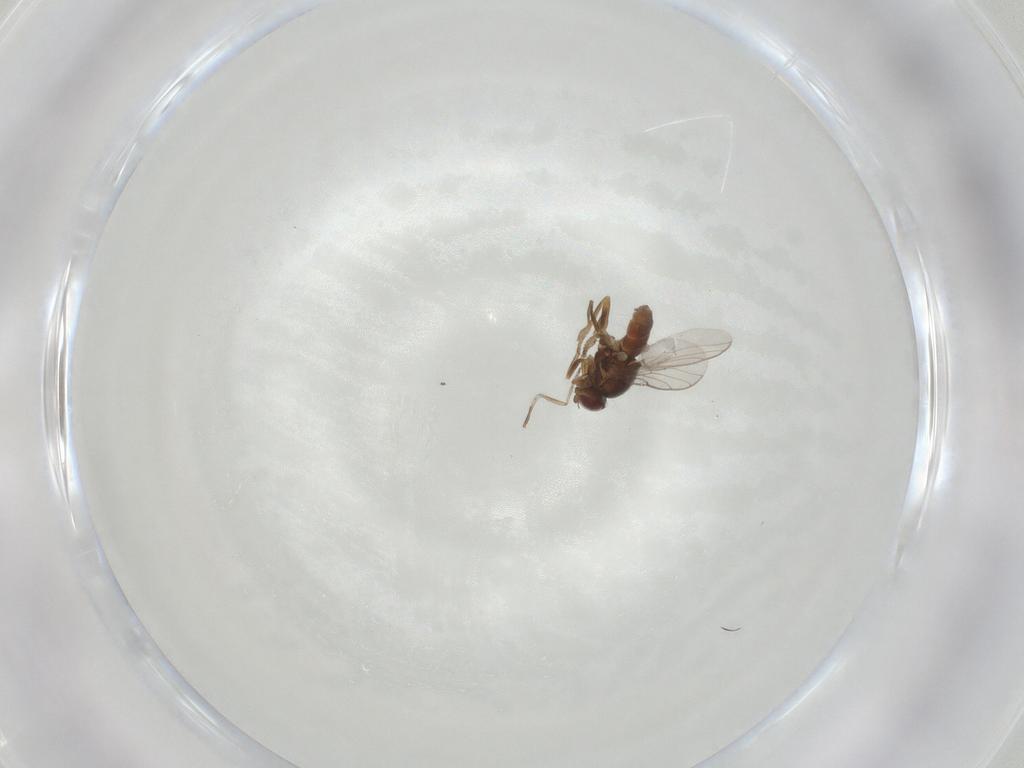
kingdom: Animalia
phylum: Arthropoda
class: Insecta
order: Diptera
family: Chloropidae
